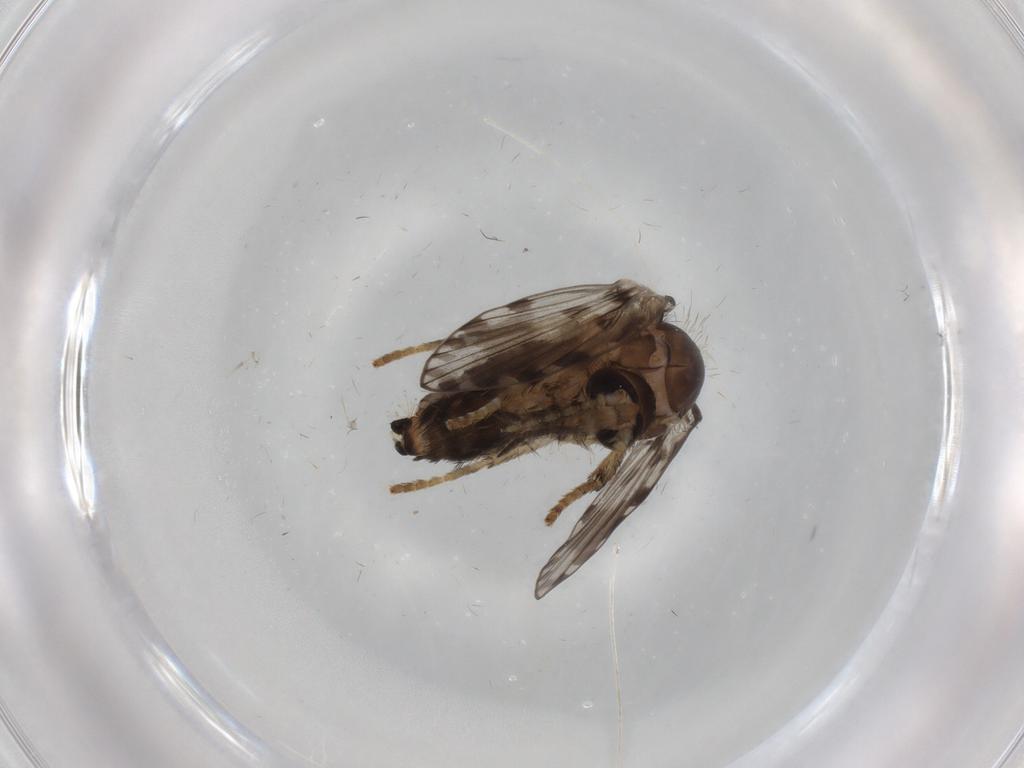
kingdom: Animalia
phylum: Arthropoda
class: Insecta
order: Diptera
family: Psychodidae
